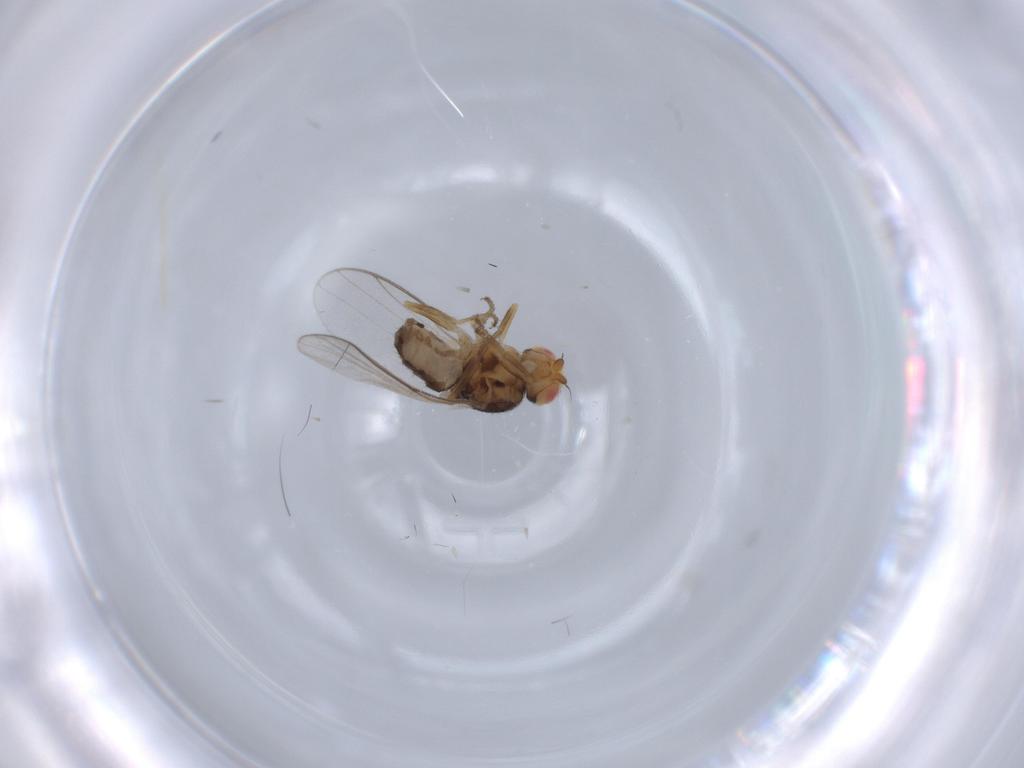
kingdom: Animalia
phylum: Arthropoda
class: Insecta
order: Diptera
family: Chloropidae
